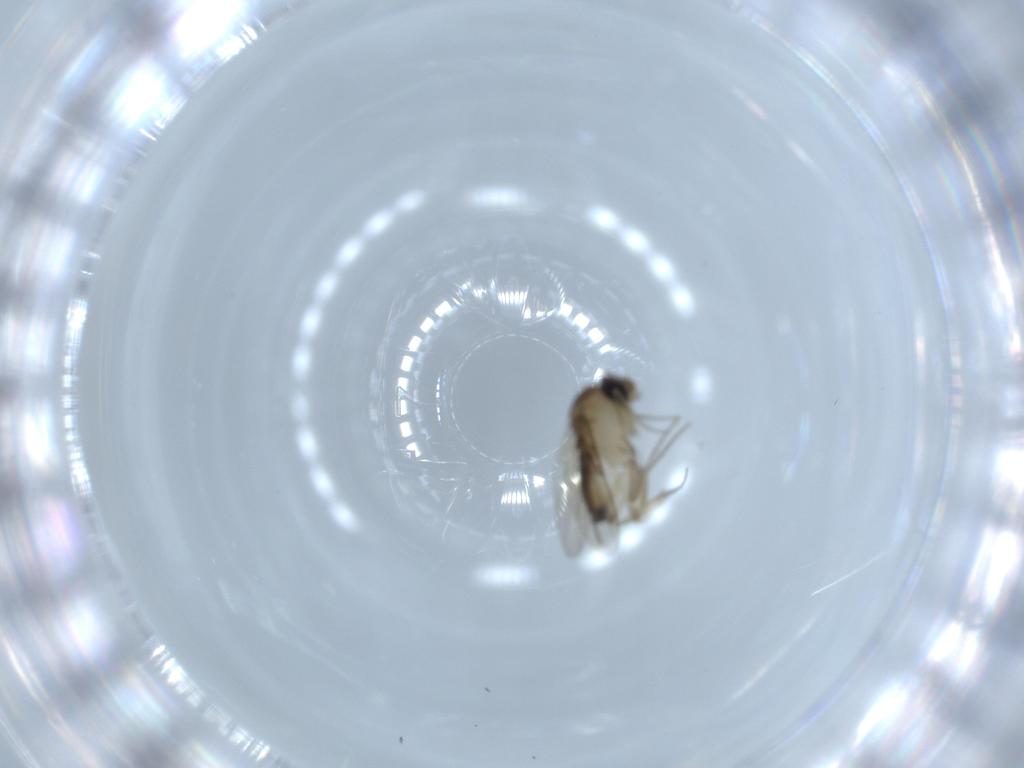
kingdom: Animalia
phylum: Arthropoda
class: Insecta
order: Diptera
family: Phoridae
